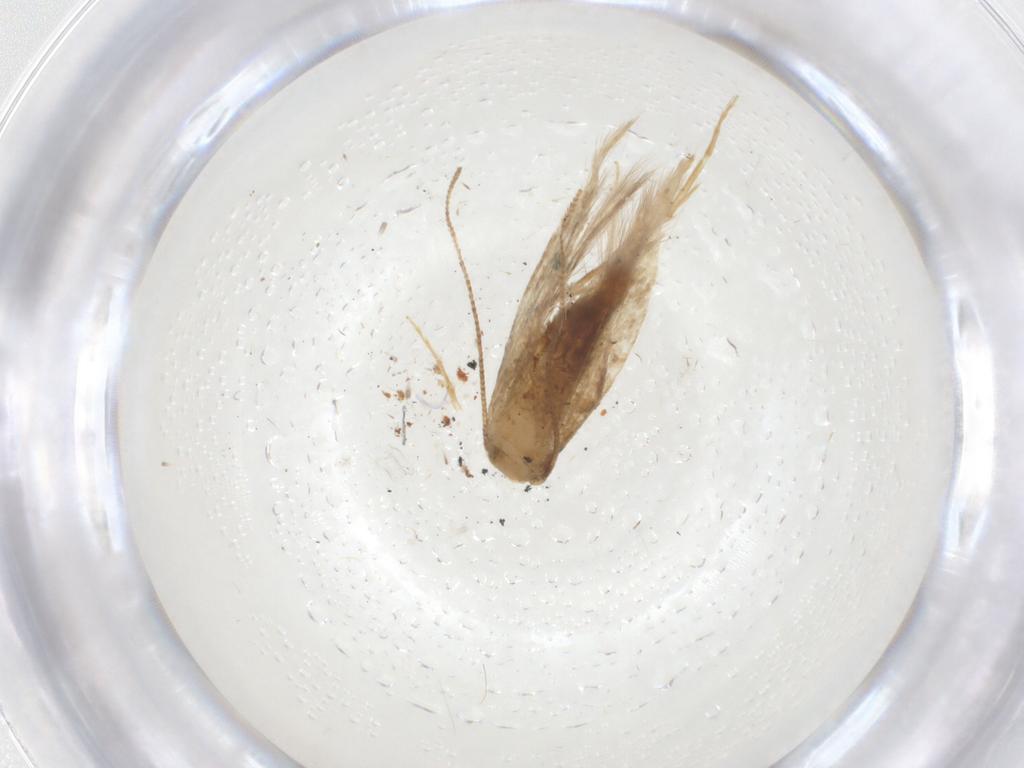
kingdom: Animalia
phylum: Arthropoda
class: Insecta
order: Lepidoptera
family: Tineidae
